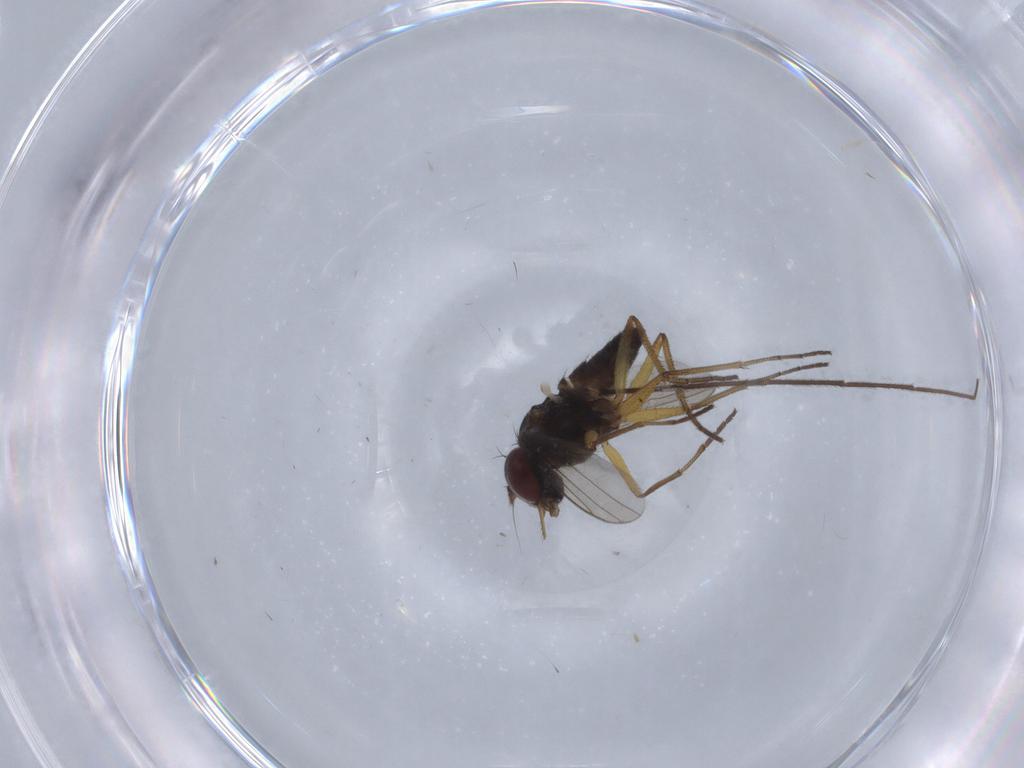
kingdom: Animalia
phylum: Arthropoda
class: Insecta
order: Diptera
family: Dolichopodidae
